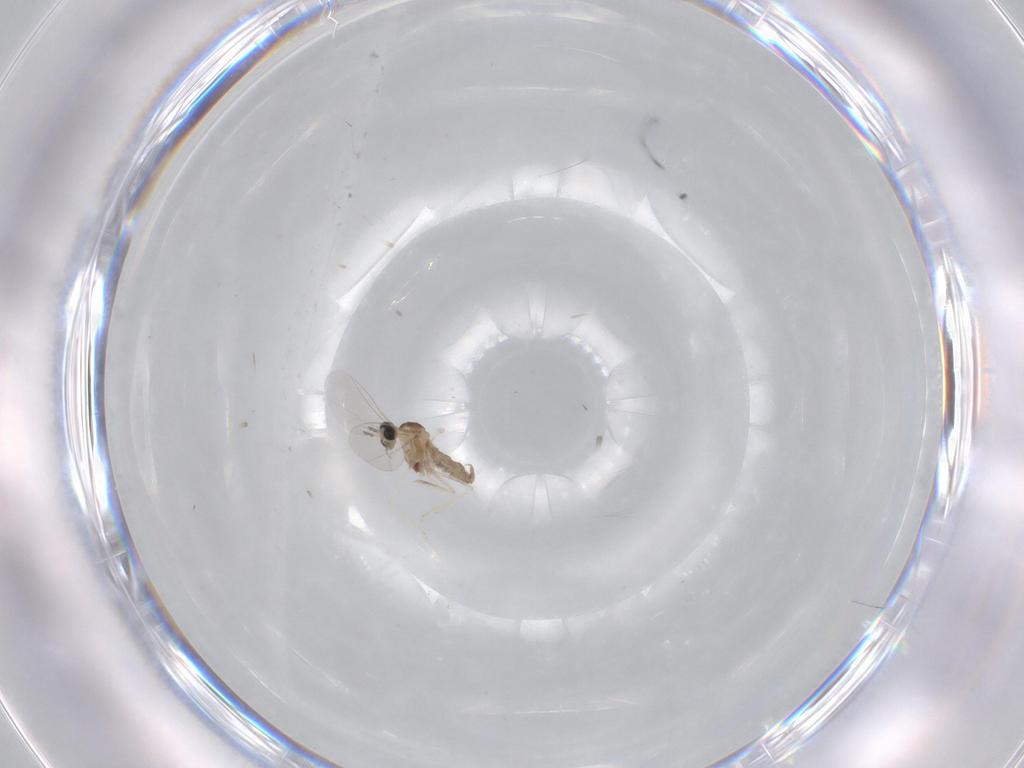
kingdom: Animalia
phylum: Arthropoda
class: Insecta
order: Diptera
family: Cecidomyiidae
